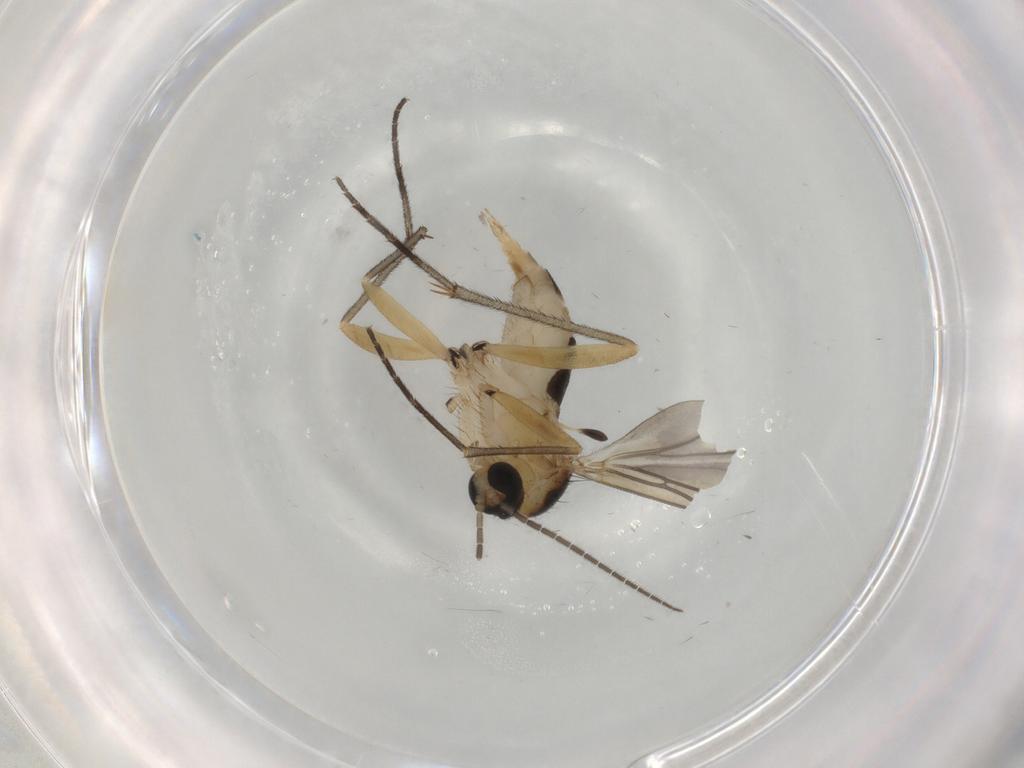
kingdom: Animalia
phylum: Arthropoda
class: Insecta
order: Diptera
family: Sciaridae
